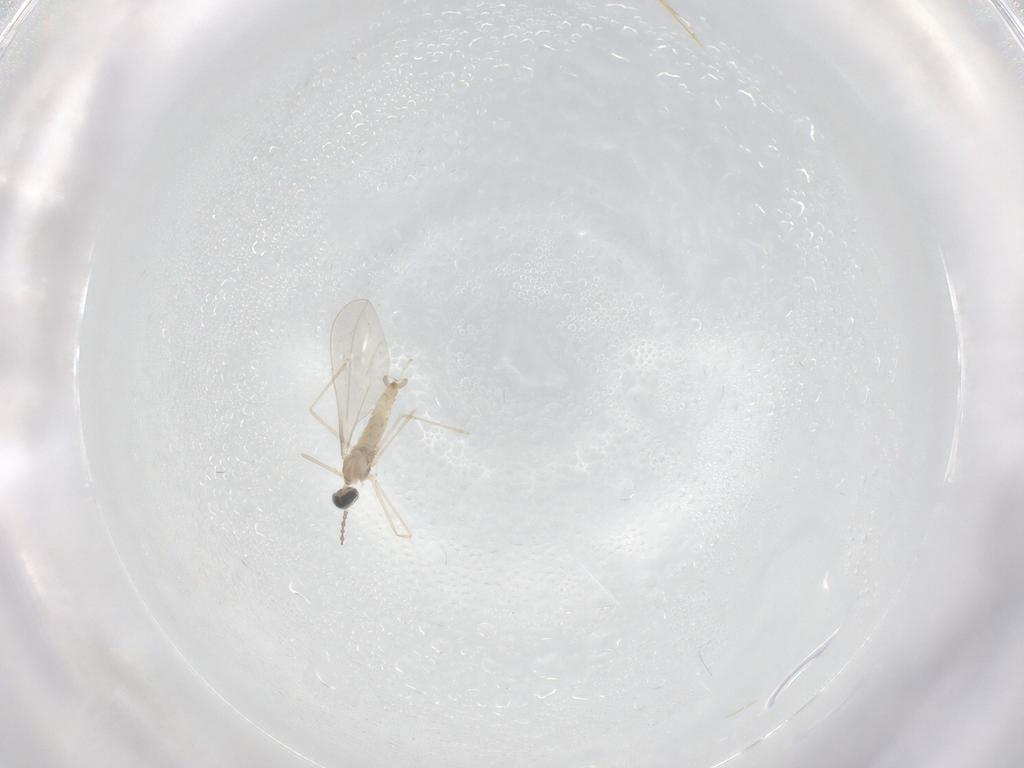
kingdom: Animalia
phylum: Arthropoda
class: Insecta
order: Diptera
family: Cecidomyiidae
